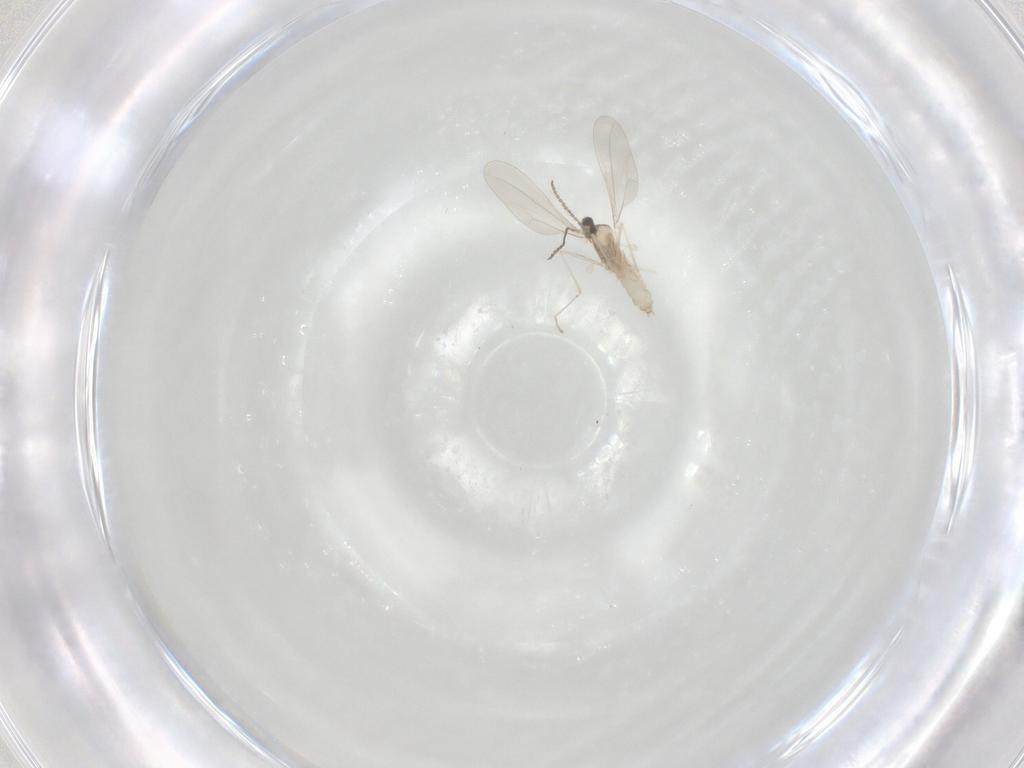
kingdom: Animalia
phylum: Arthropoda
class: Insecta
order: Diptera
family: Cecidomyiidae
